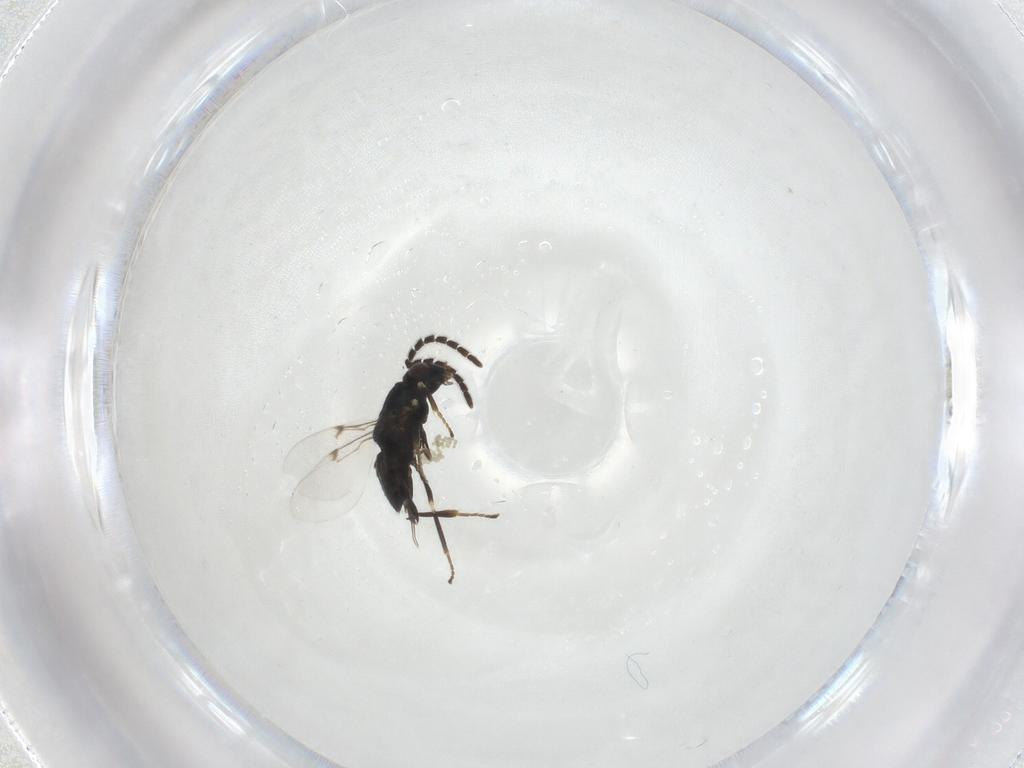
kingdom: Animalia
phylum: Arthropoda
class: Insecta
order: Hymenoptera
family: Encyrtidae
